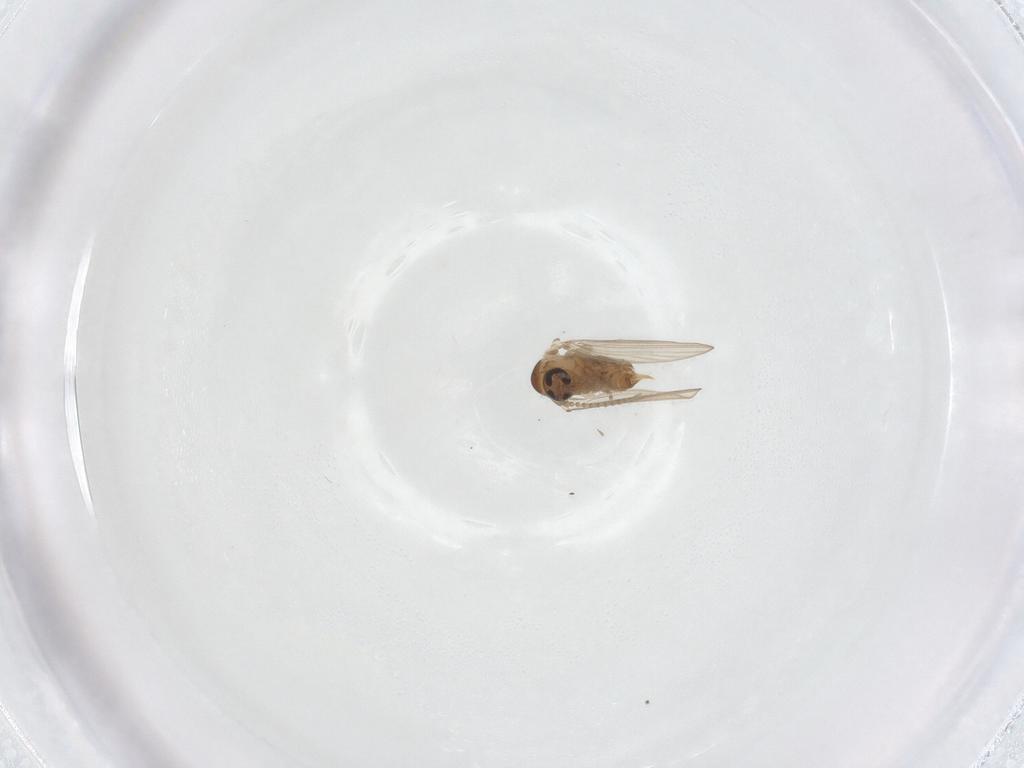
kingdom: Animalia
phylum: Arthropoda
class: Insecta
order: Diptera
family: Psychodidae
